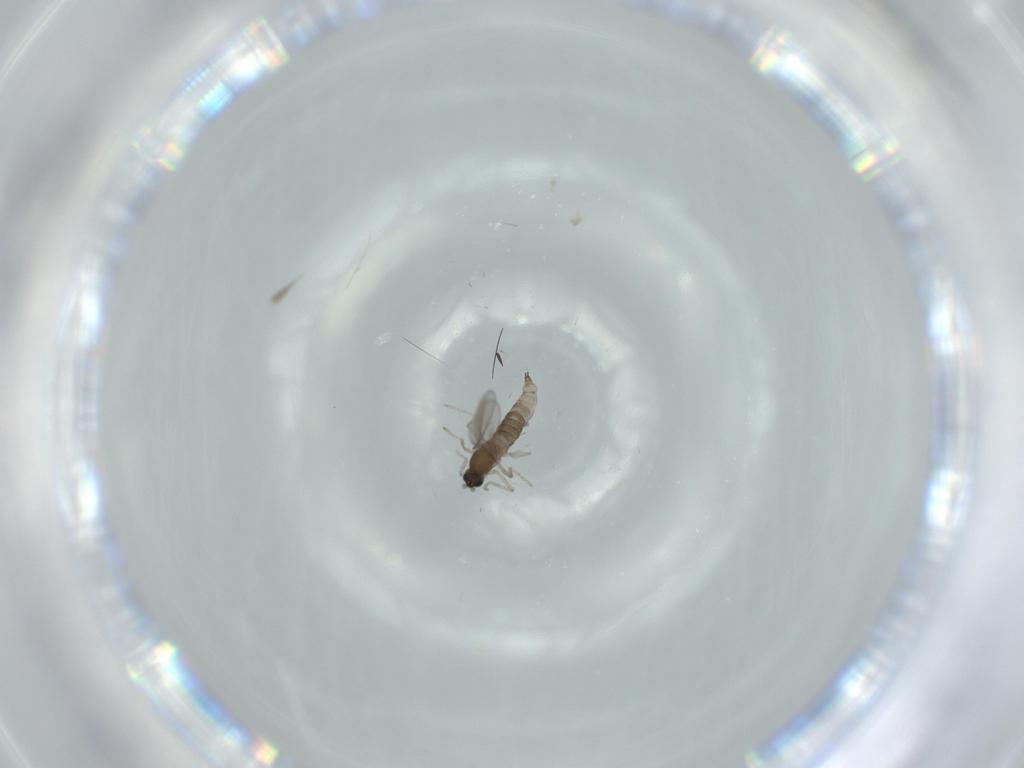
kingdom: Animalia
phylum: Arthropoda
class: Insecta
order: Diptera
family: Cecidomyiidae
